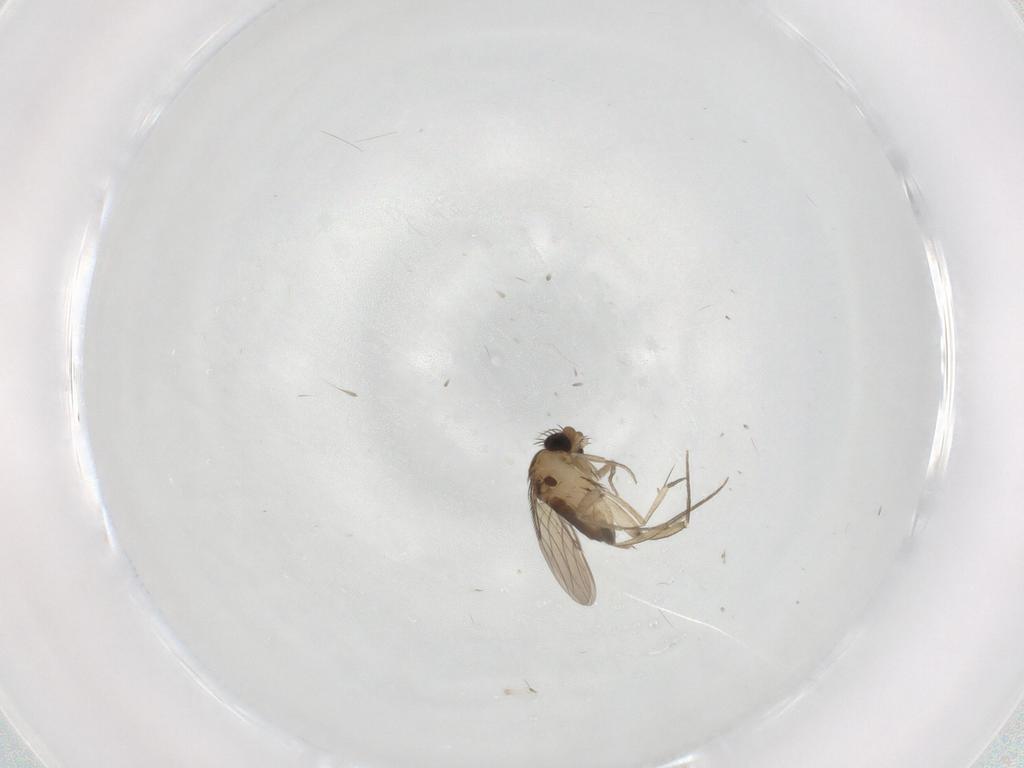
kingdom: Animalia
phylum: Arthropoda
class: Insecta
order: Diptera
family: Phoridae
